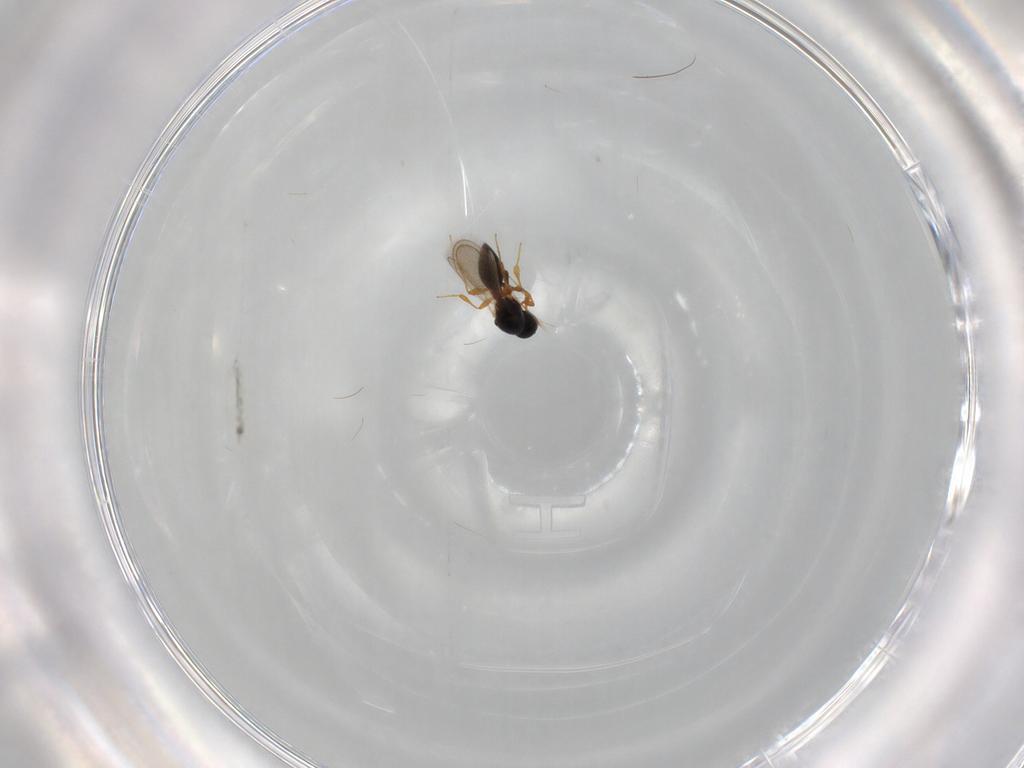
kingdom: Animalia
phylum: Arthropoda
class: Insecta
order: Hymenoptera
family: Platygastridae
